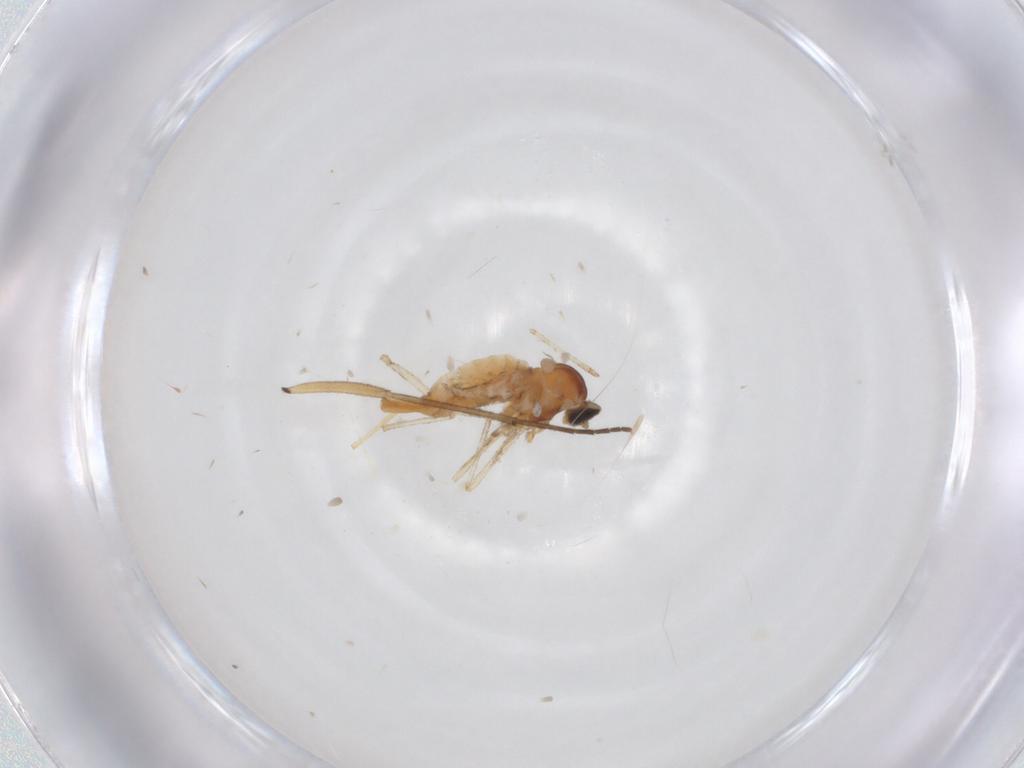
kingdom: Animalia
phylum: Arthropoda
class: Insecta
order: Diptera
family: Cecidomyiidae
